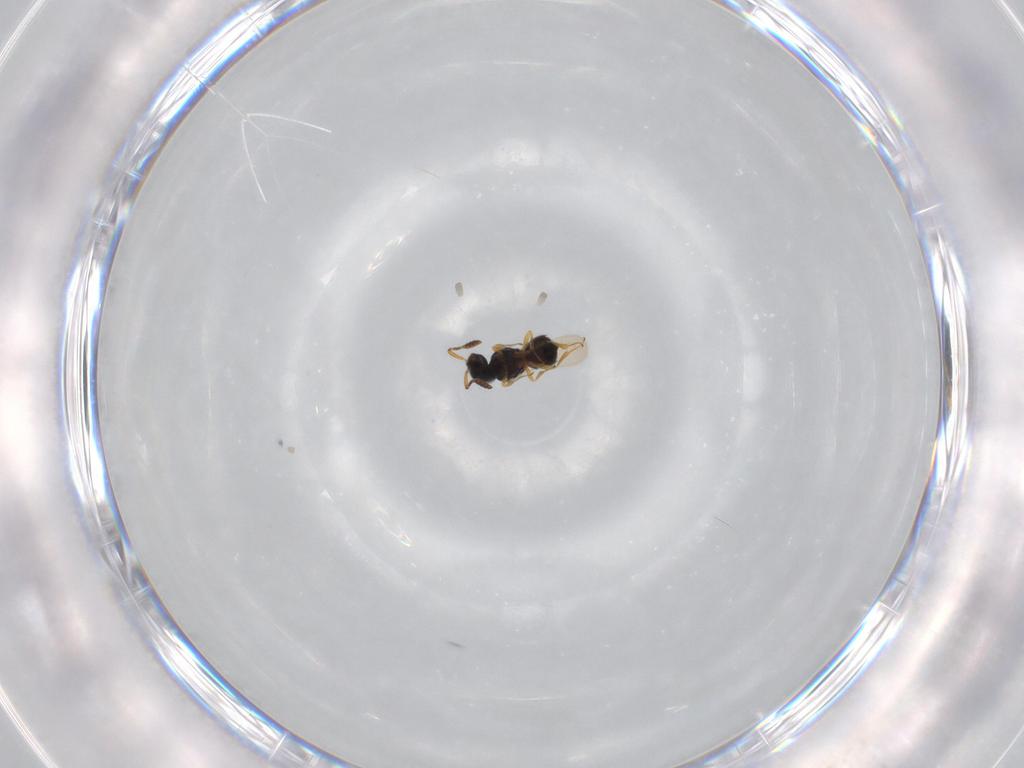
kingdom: Animalia
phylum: Arthropoda
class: Insecta
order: Hymenoptera
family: Scelionidae
